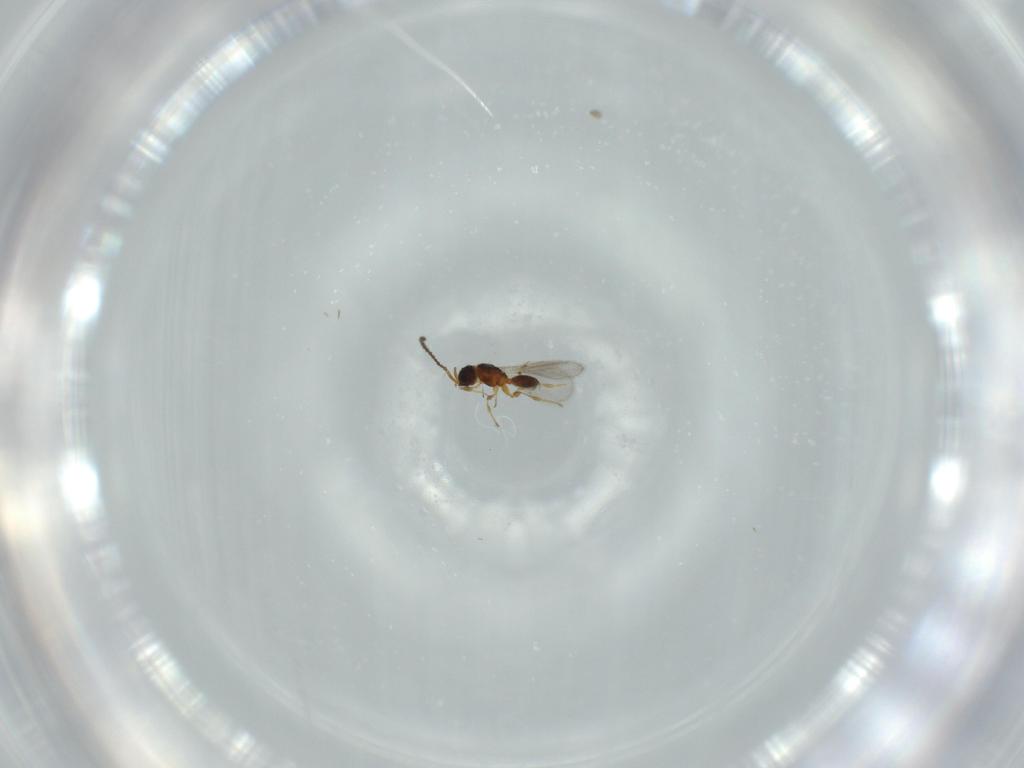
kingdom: Animalia
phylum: Arthropoda
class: Insecta
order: Hymenoptera
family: Diapriidae
